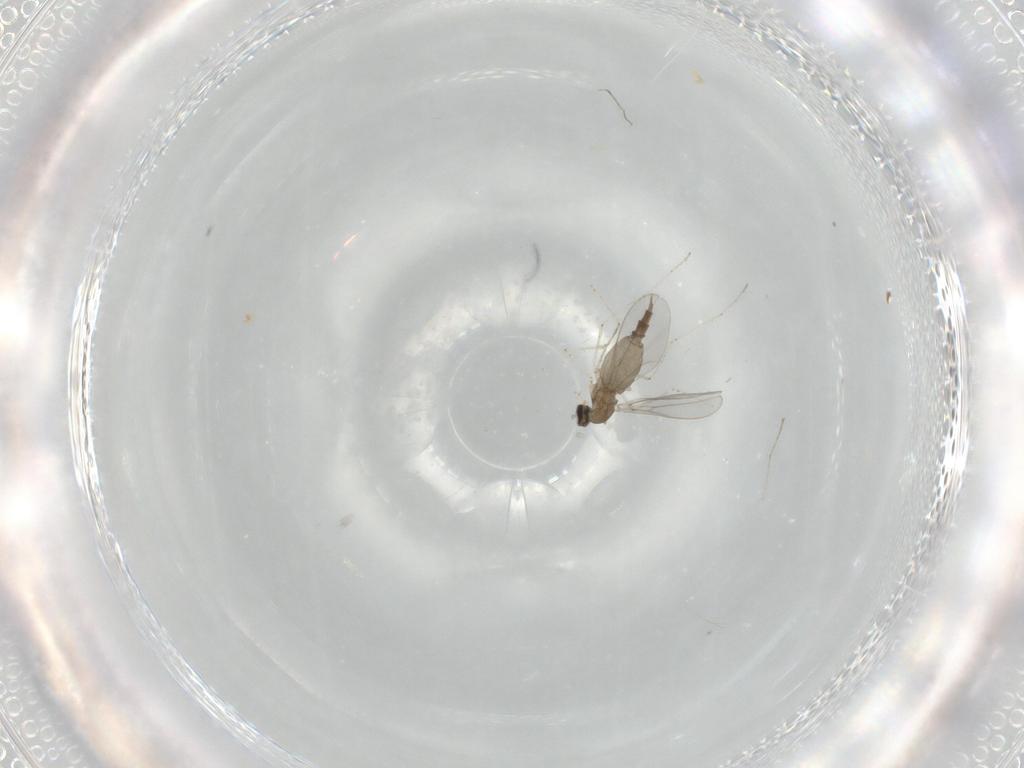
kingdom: Animalia
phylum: Arthropoda
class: Insecta
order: Diptera
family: Cecidomyiidae
